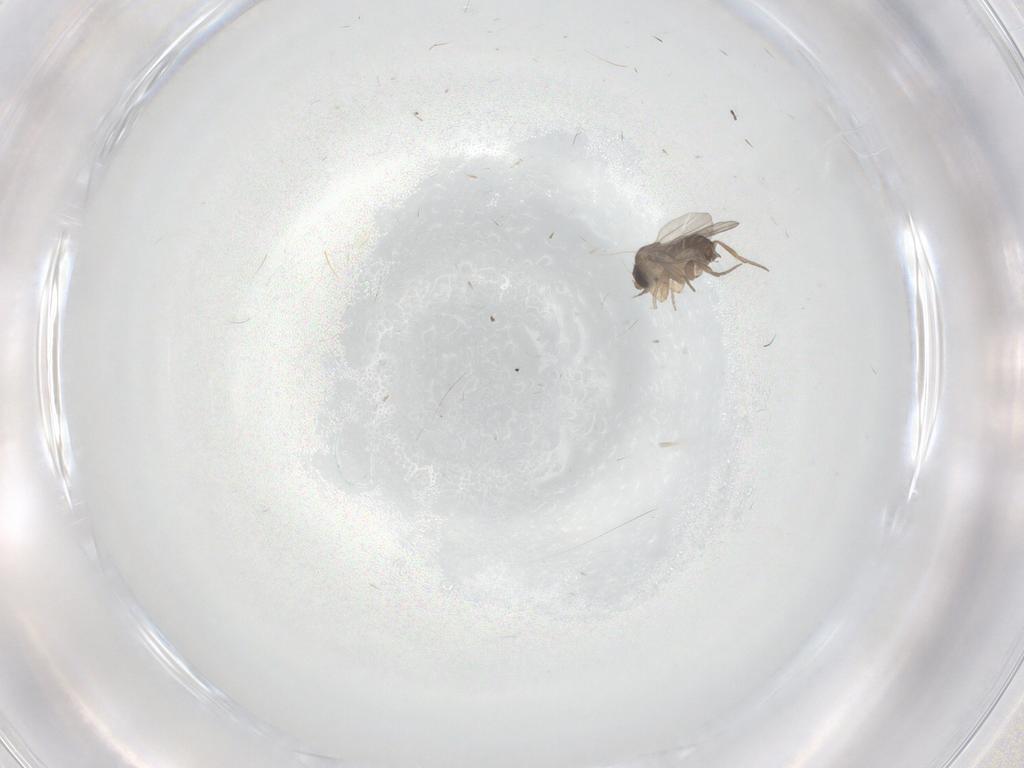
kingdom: Animalia
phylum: Arthropoda
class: Insecta
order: Diptera
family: Phoridae
